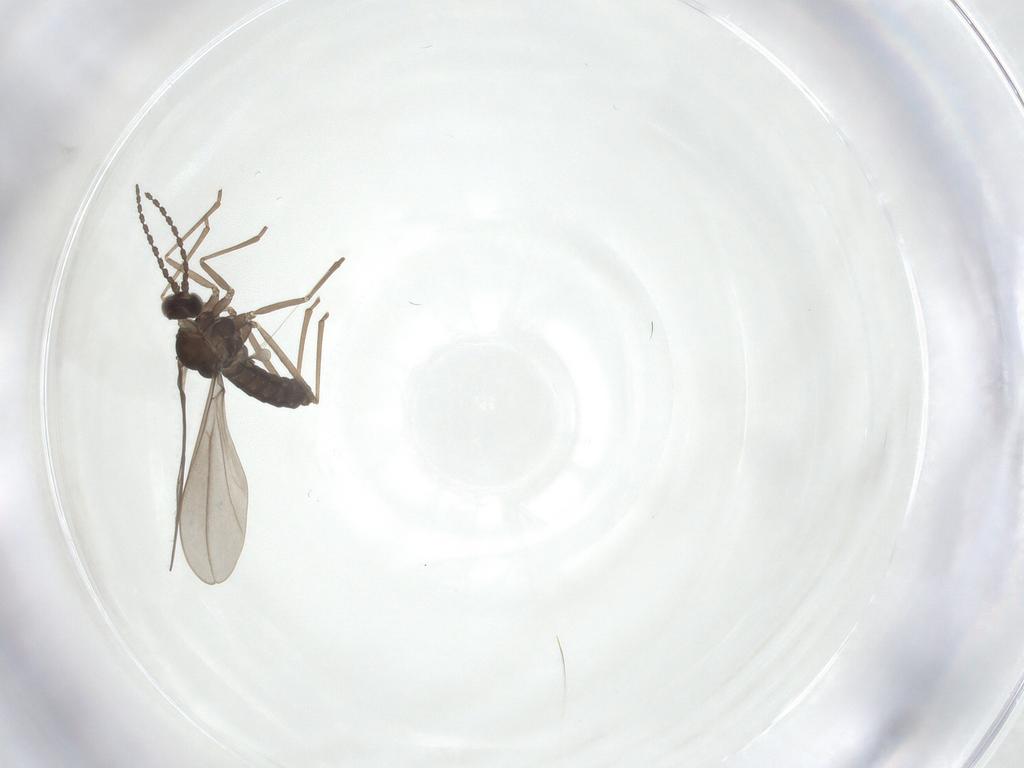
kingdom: Animalia
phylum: Arthropoda
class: Insecta
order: Diptera
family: Cecidomyiidae
